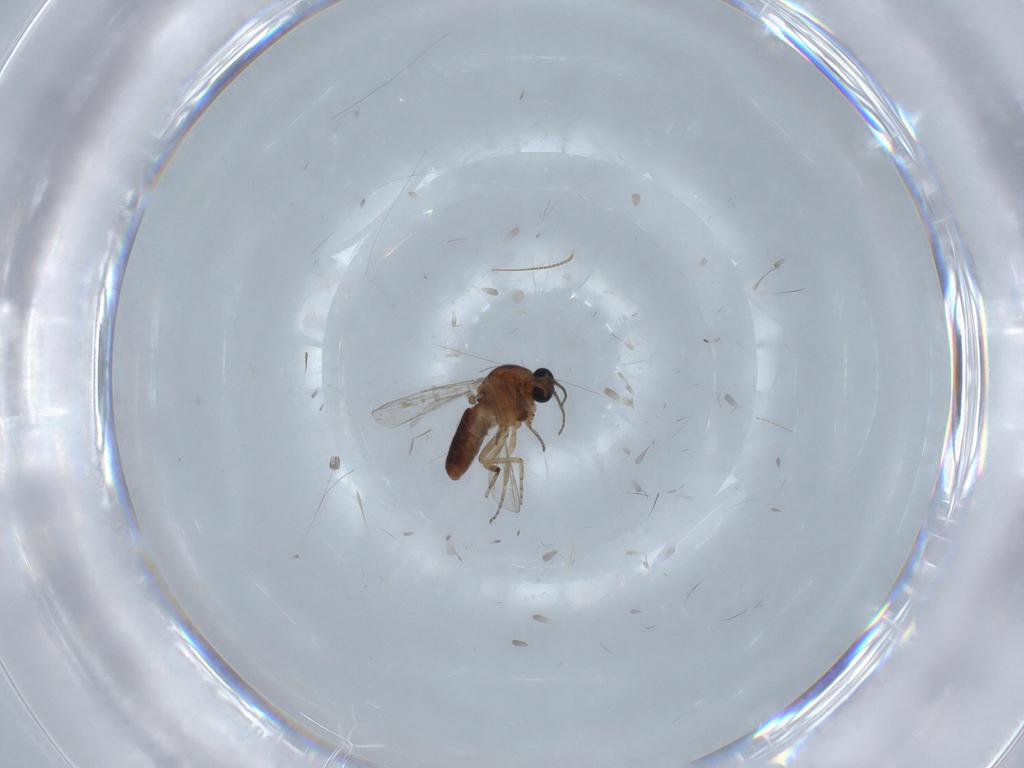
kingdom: Animalia
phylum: Arthropoda
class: Insecta
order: Diptera
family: Ceratopogonidae
